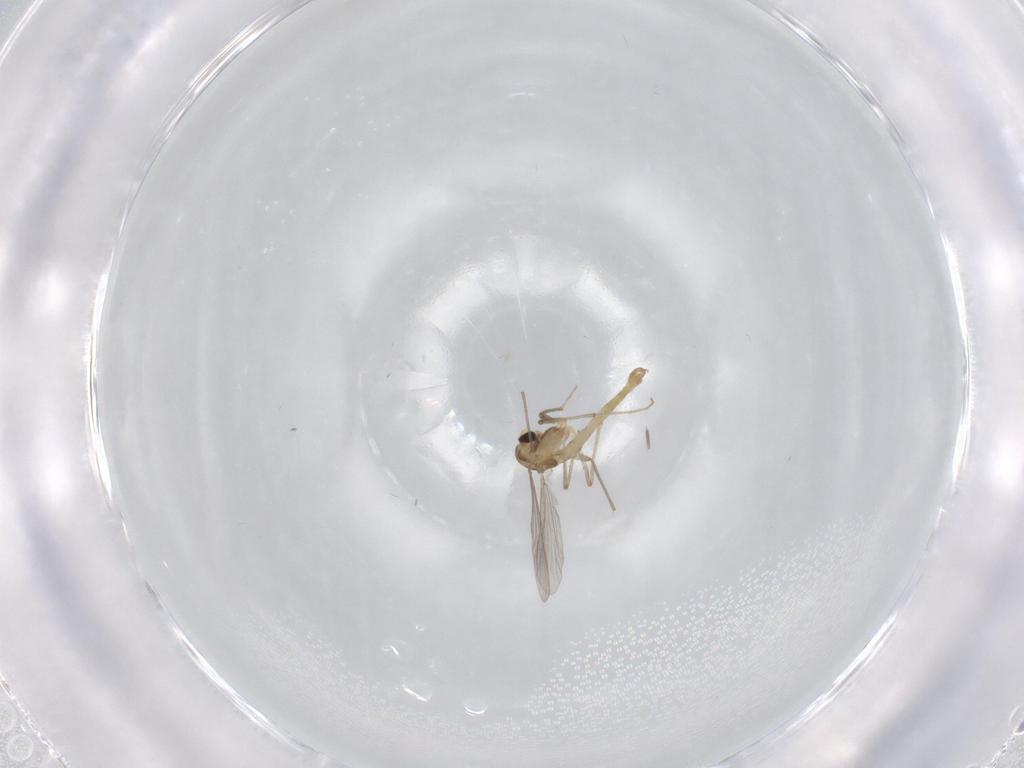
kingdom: Animalia
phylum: Arthropoda
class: Insecta
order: Diptera
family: Chironomidae
